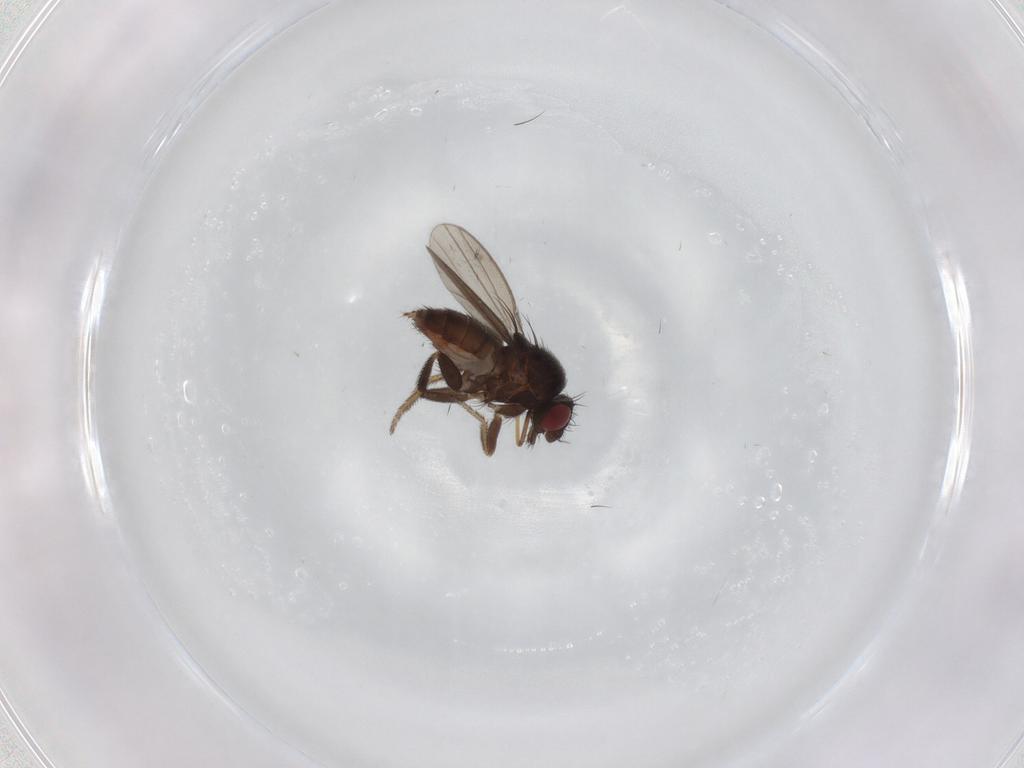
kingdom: Animalia
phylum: Arthropoda
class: Insecta
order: Diptera
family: Milichiidae
